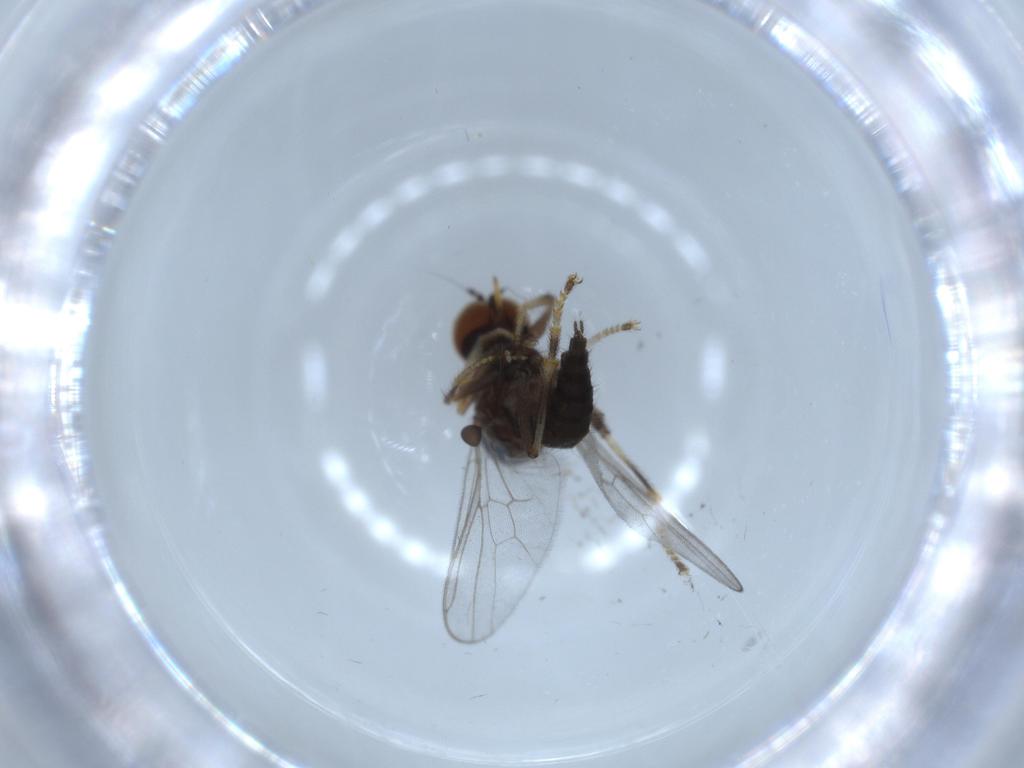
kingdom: Animalia
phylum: Arthropoda
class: Insecta
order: Diptera
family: Hybotidae
